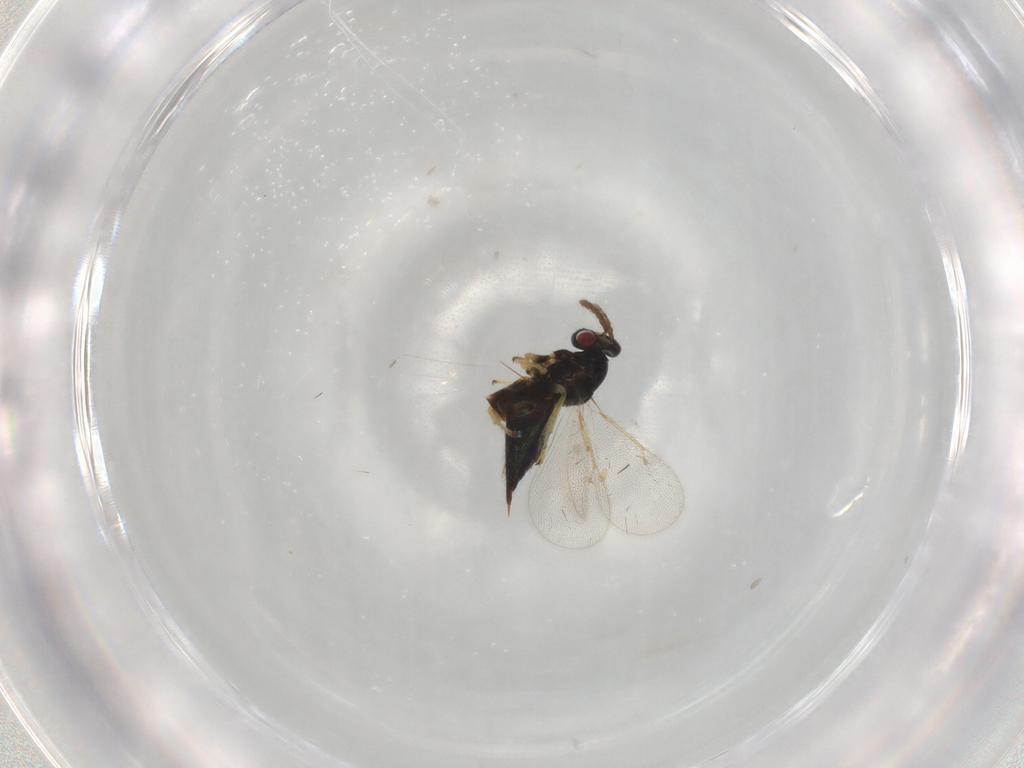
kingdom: Animalia
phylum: Arthropoda
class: Insecta
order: Hymenoptera
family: Eulophidae
